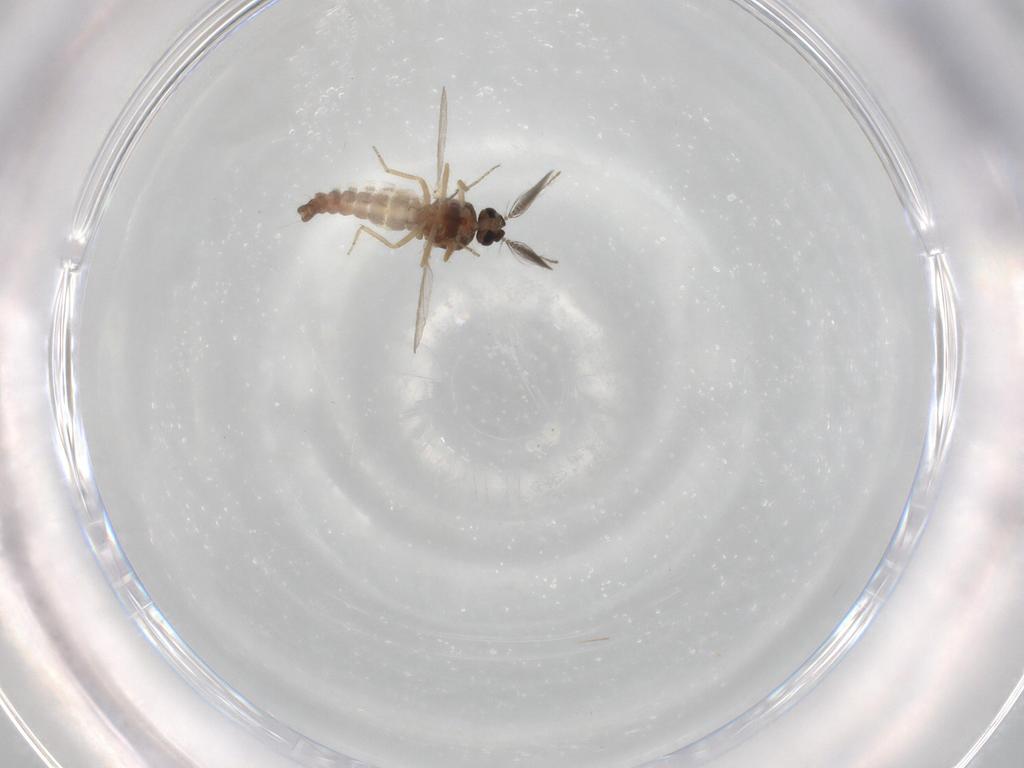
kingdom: Animalia
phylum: Arthropoda
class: Insecta
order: Diptera
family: Ceratopogonidae
